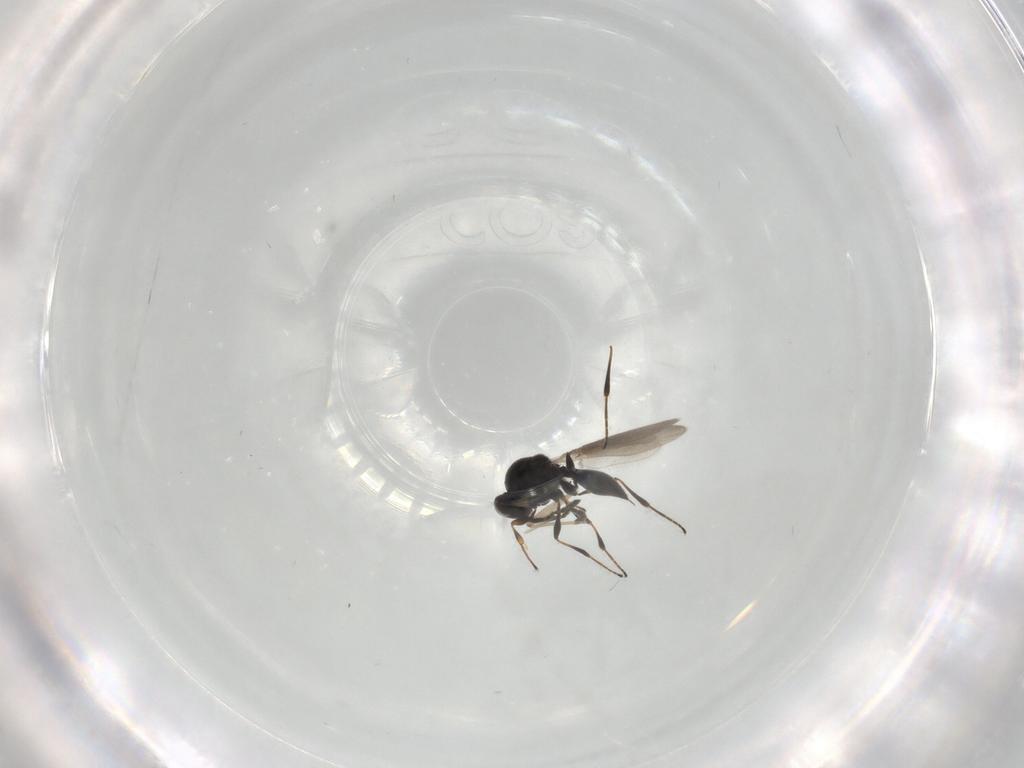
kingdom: Animalia
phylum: Arthropoda
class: Insecta
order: Hymenoptera
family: Platygastridae
